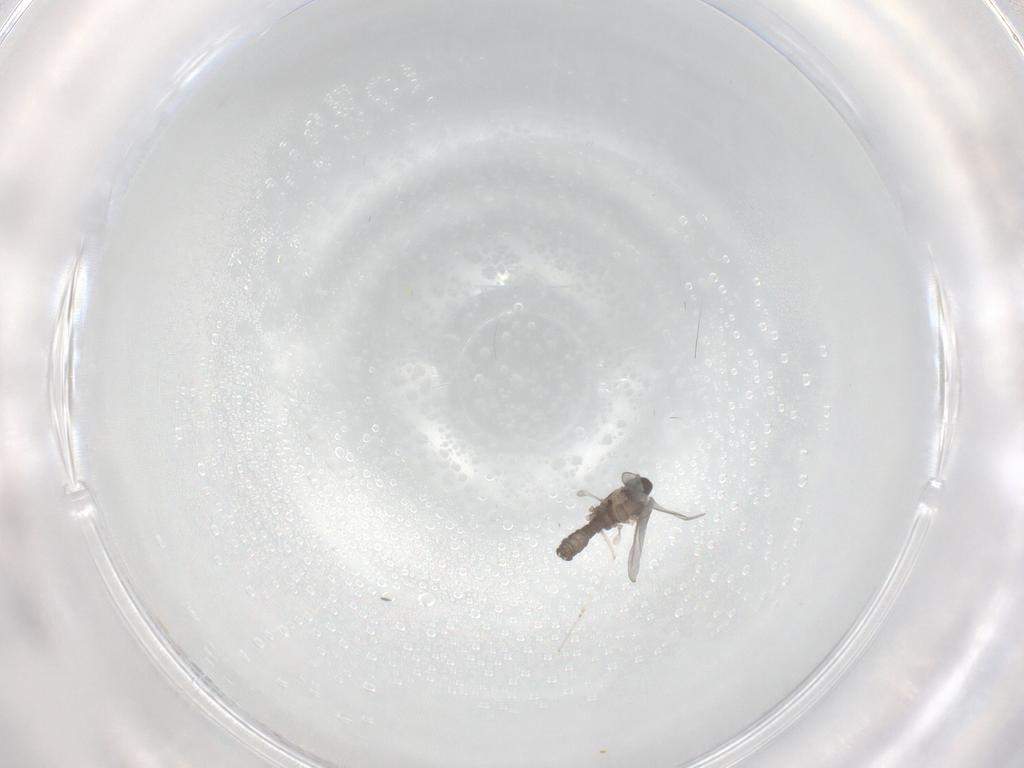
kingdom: Animalia
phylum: Arthropoda
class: Insecta
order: Diptera
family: Cecidomyiidae
